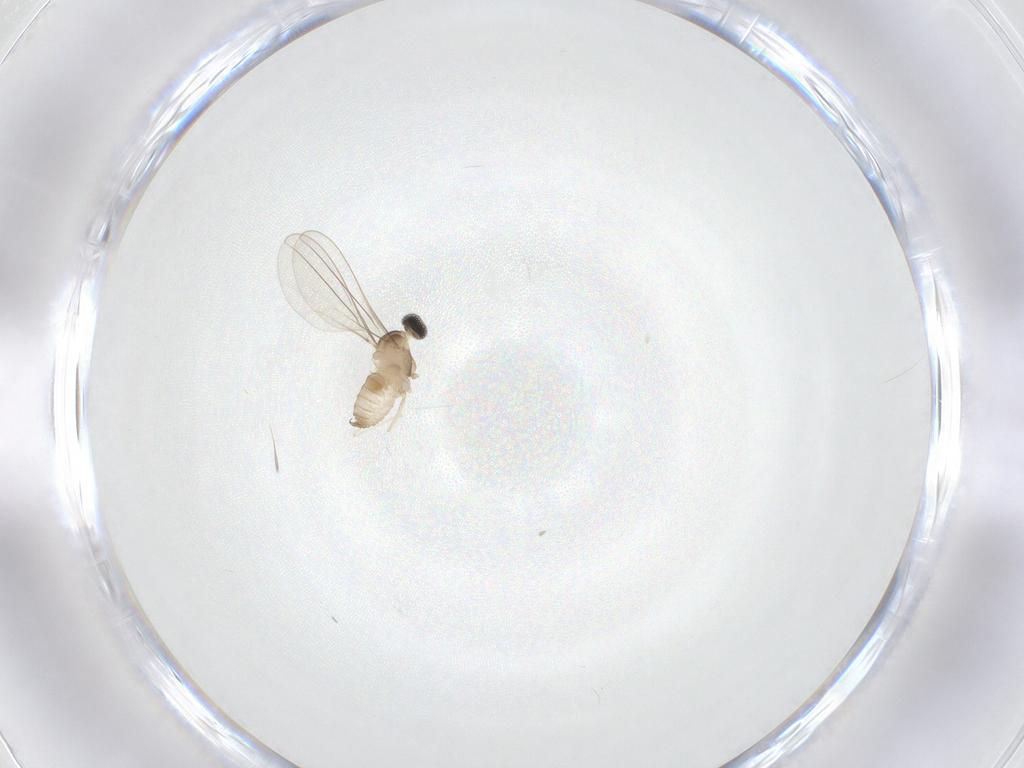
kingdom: Animalia
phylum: Arthropoda
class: Insecta
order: Diptera
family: Cecidomyiidae
